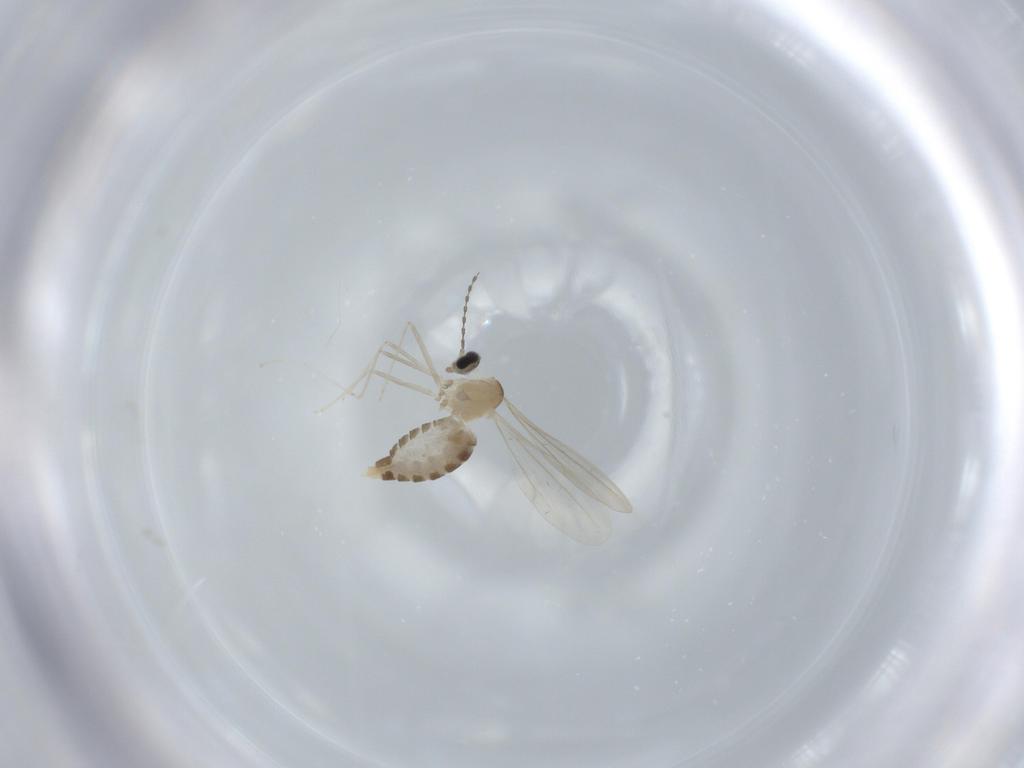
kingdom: Animalia
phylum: Arthropoda
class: Insecta
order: Diptera
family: Cecidomyiidae
